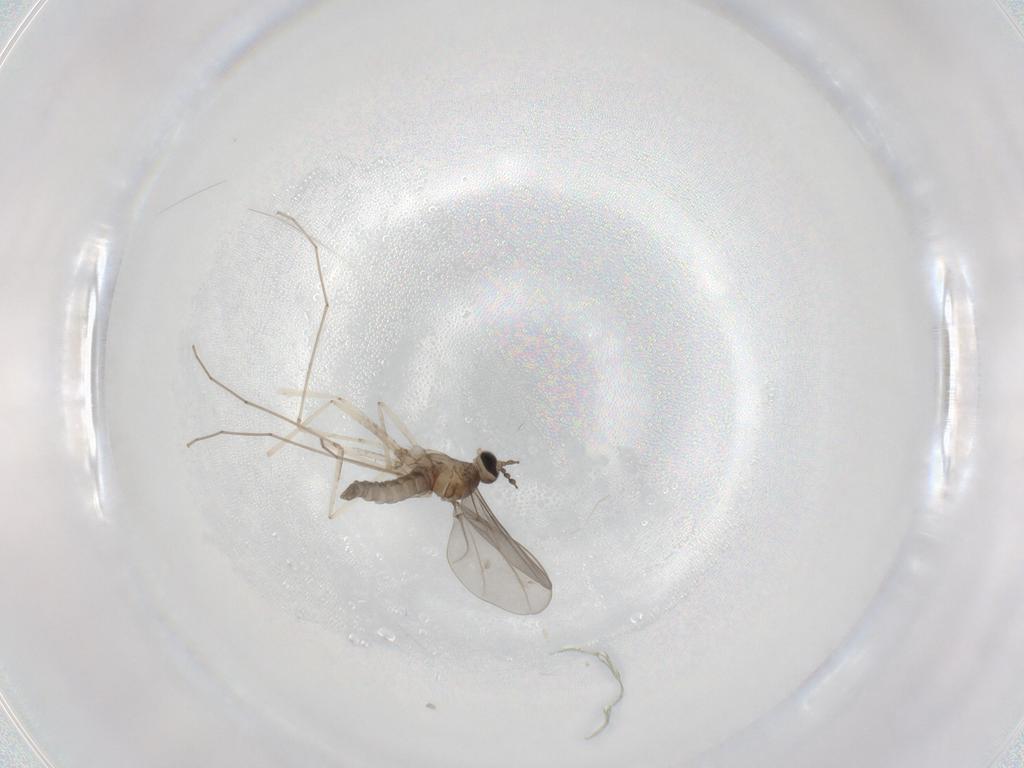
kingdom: Animalia
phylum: Arthropoda
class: Insecta
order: Diptera
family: Cecidomyiidae
